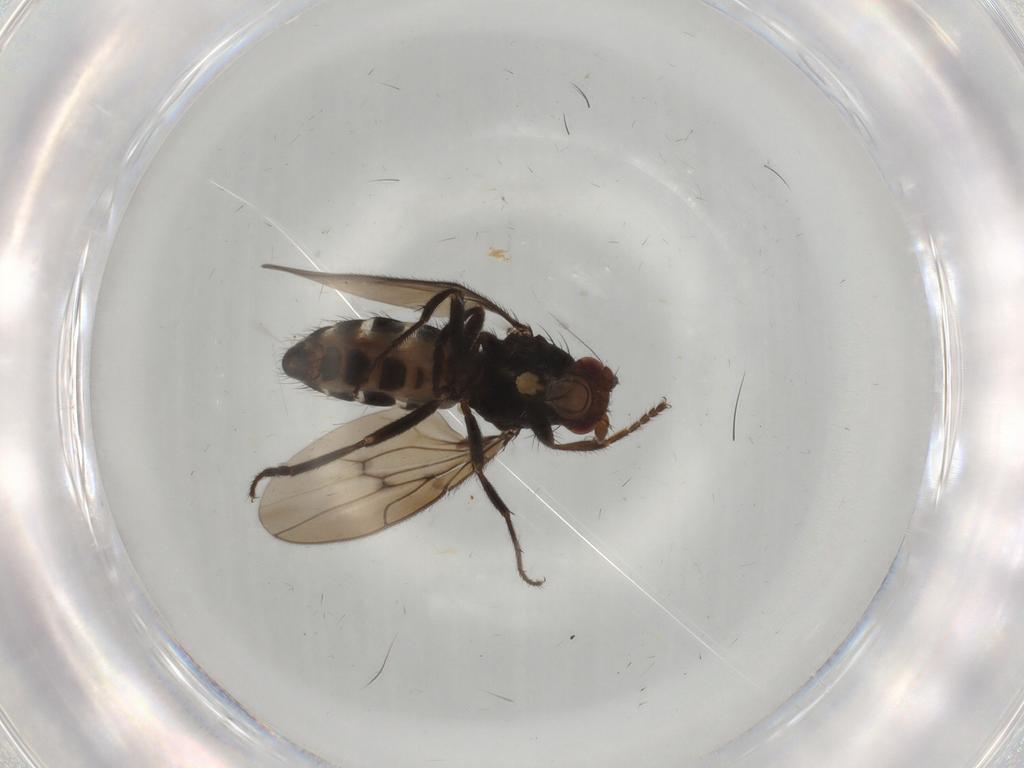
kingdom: Animalia
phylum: Arthropoda
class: Insecta
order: Diptera
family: Sphaeroceridae
